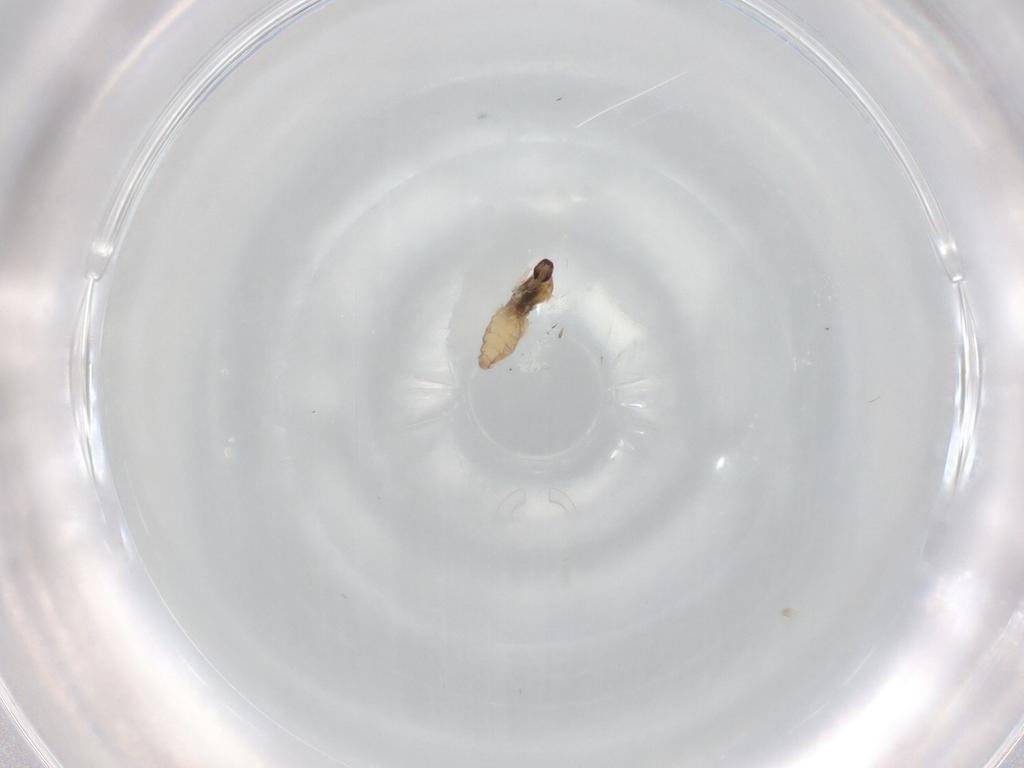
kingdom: Animalia
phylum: Arthropoda
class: Insecta
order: Diptera
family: Cecidomyiidae
